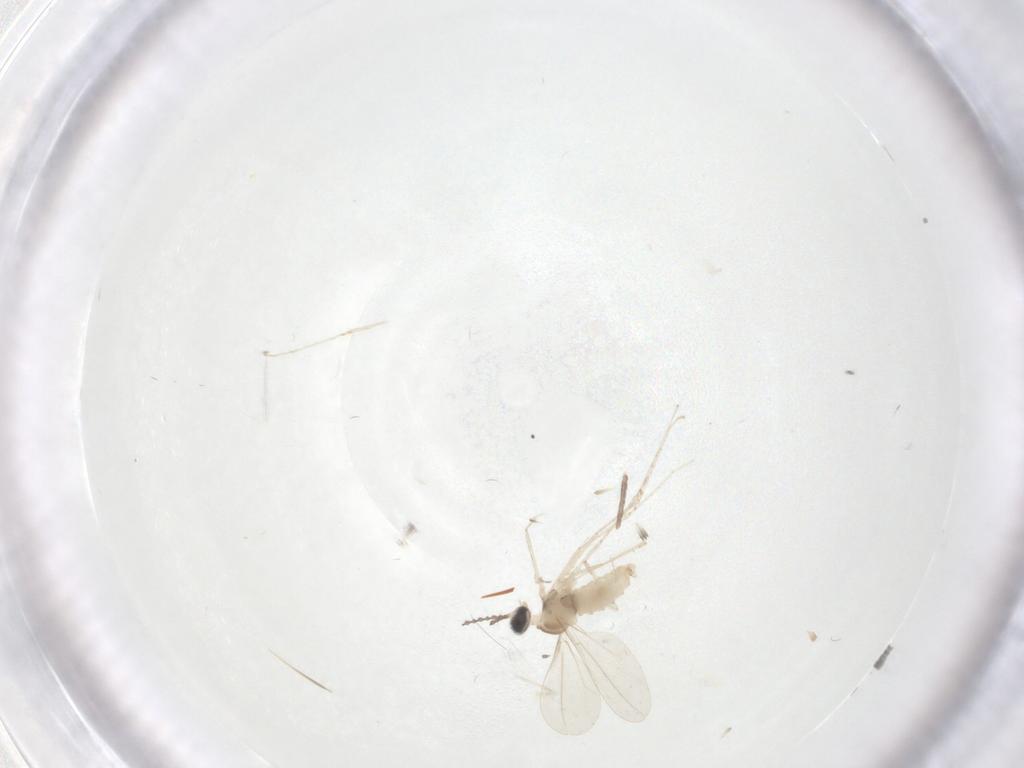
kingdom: Animalia
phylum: Arthropoda
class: Insecta
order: Diptera
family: Cecidomyiidae
